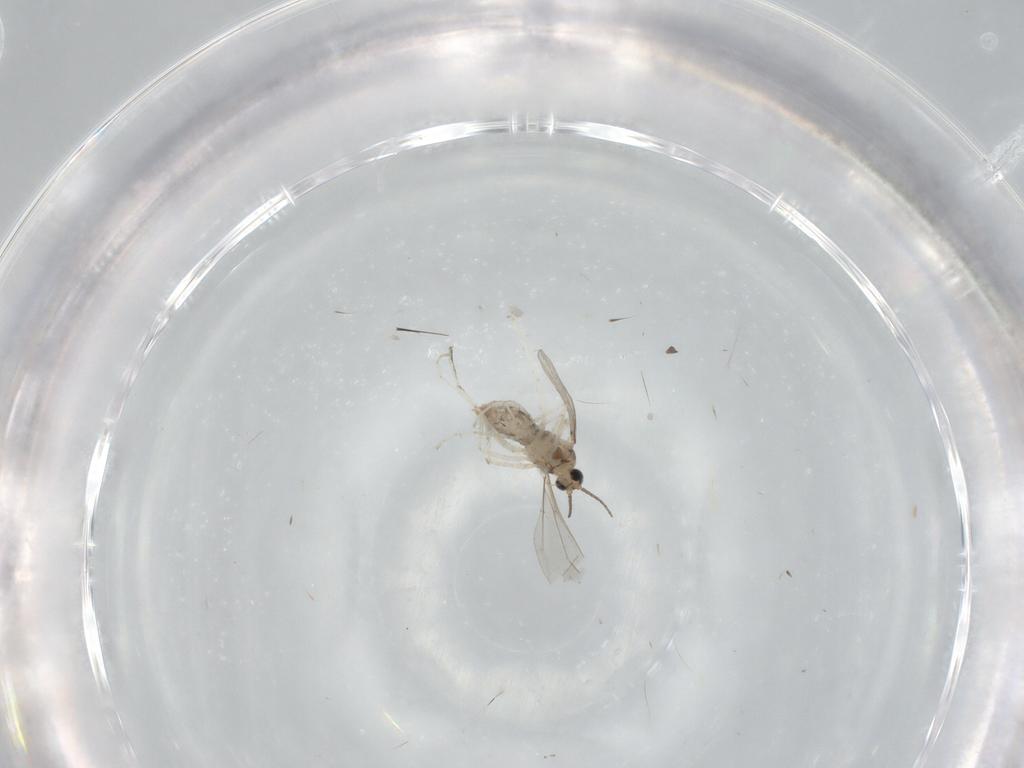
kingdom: Animalia
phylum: Arthropoda
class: Insecta
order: Diptera
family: Cecidomyiidae
